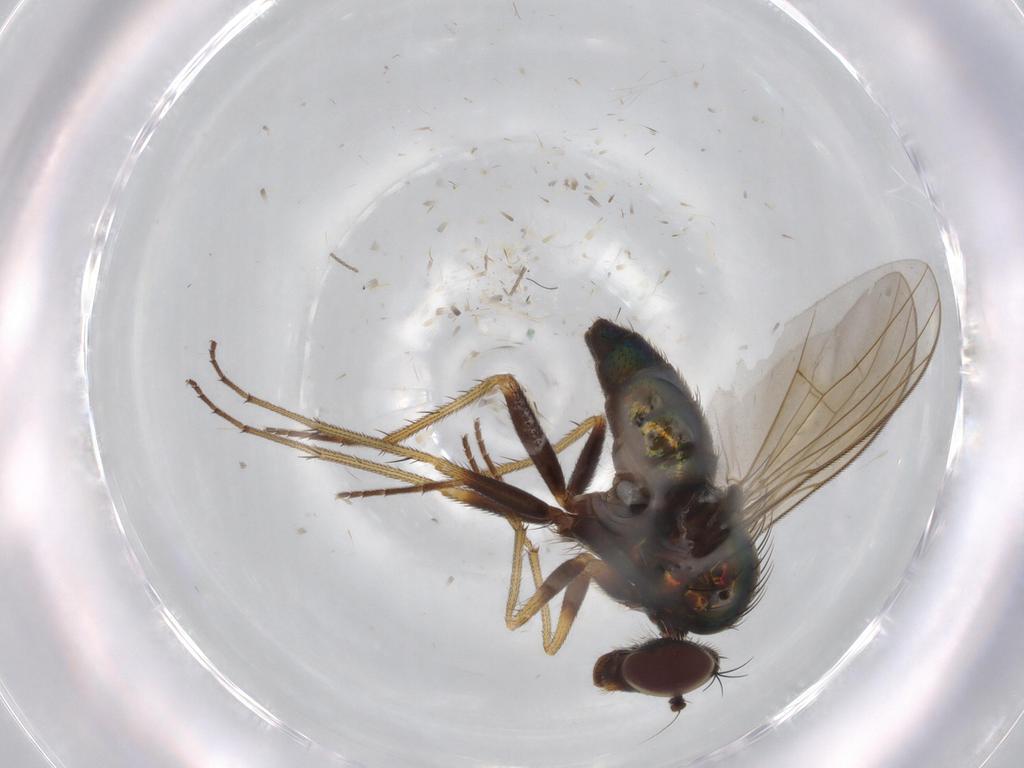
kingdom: Animalia
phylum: Arthropoda
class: Insecta
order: Diptera
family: Dolichopodidae
